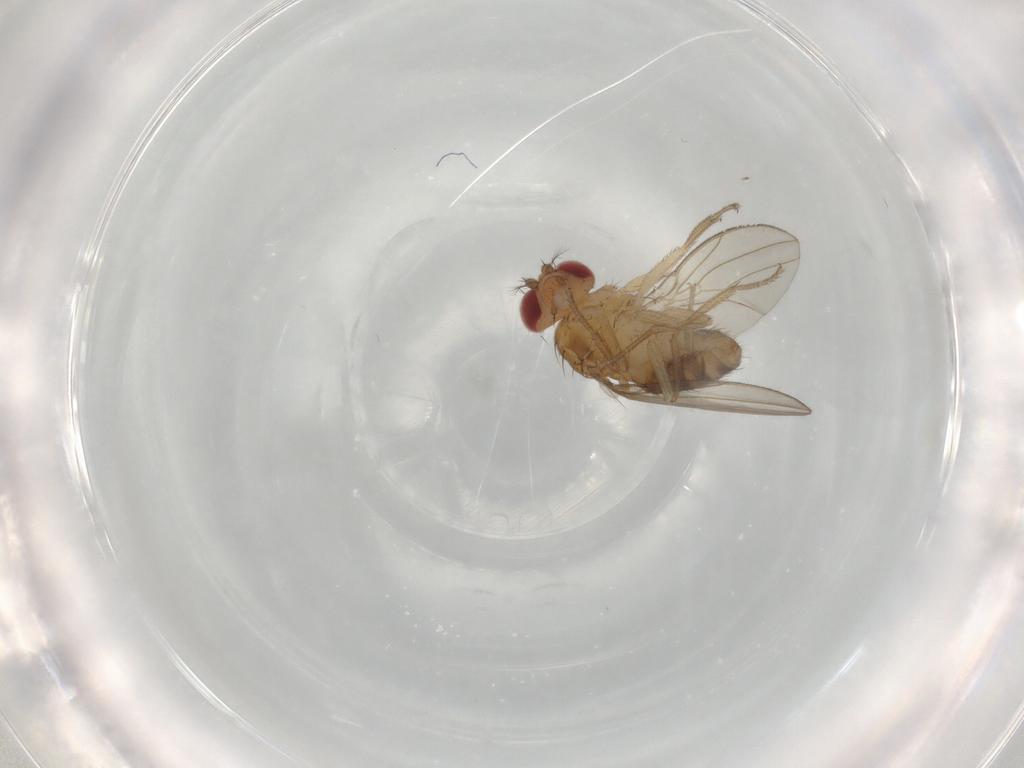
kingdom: Animalia
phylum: Arthropoda
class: Insecta
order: Diptera
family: Drosophilidae
